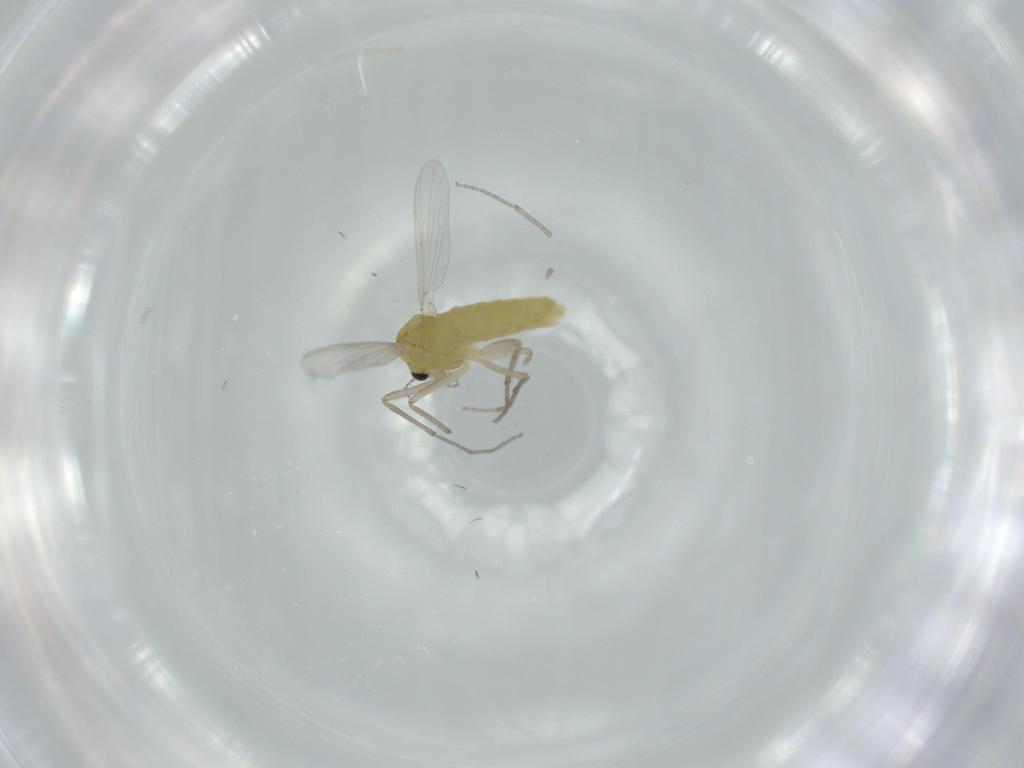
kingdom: Animalia
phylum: Arthropoda
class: Insecta
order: Diptera
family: Chironomidae
